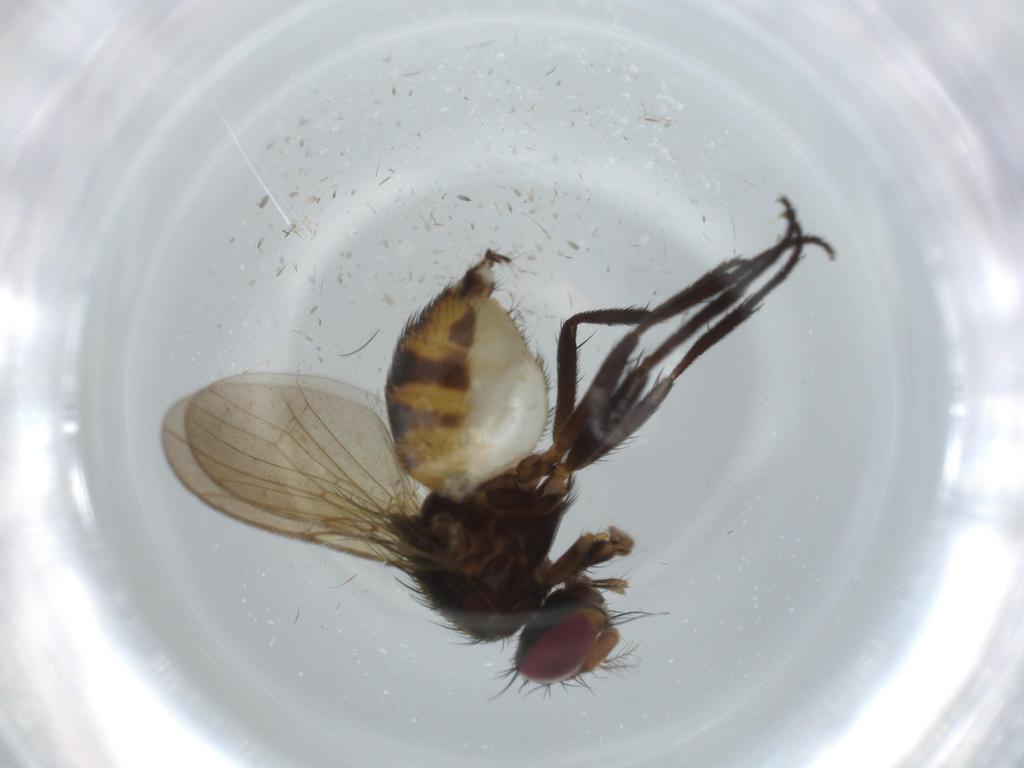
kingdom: Animalia
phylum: Arthropoda
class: Insecta
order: Diptera
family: Anthomyiidae
